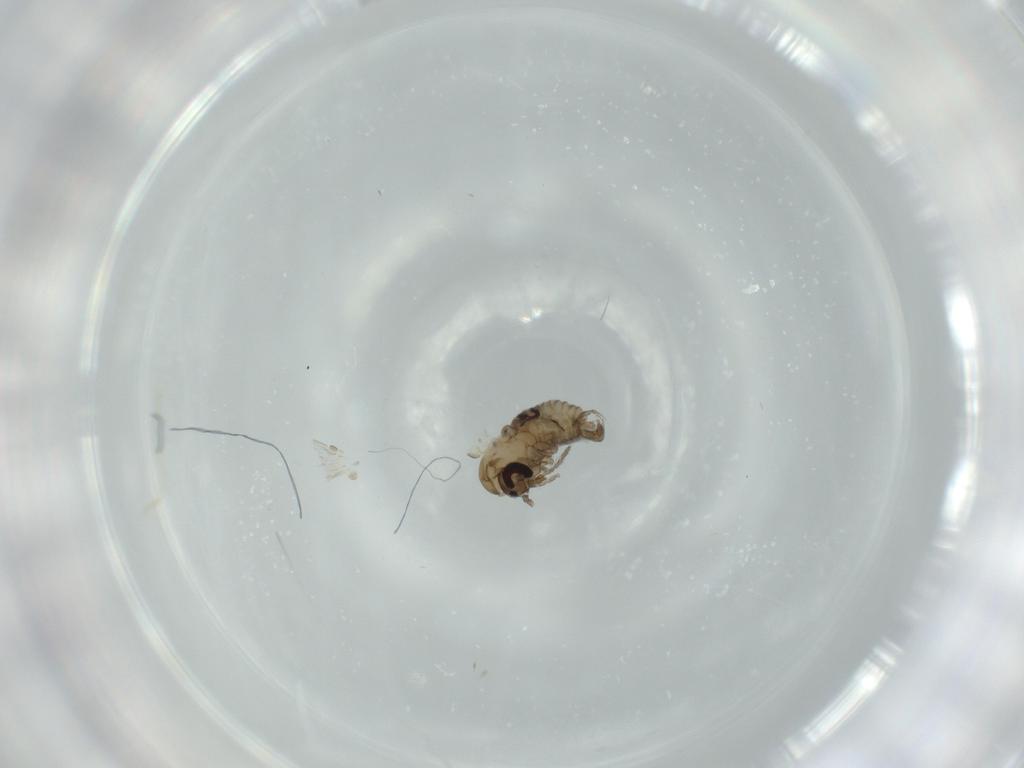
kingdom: Animalia
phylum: Arthropoda
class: Insecta
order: Diptera
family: Psychodidae
